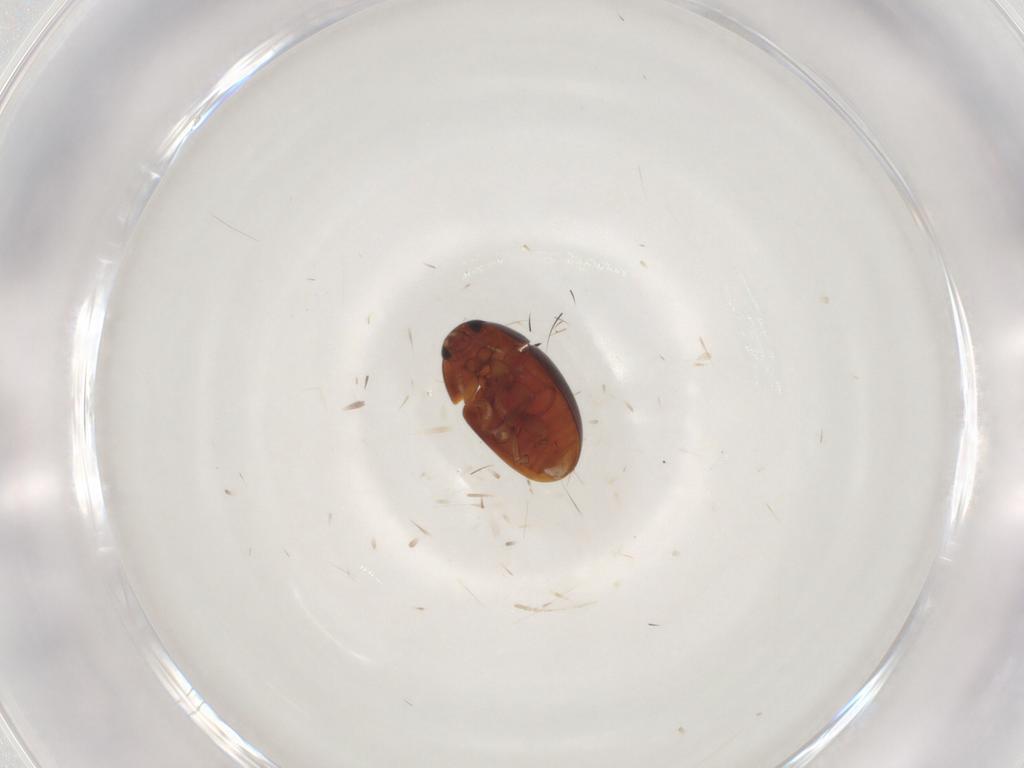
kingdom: Animalia
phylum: Arthropoda
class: Insecta
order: Coleoptera
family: Phalacridae
